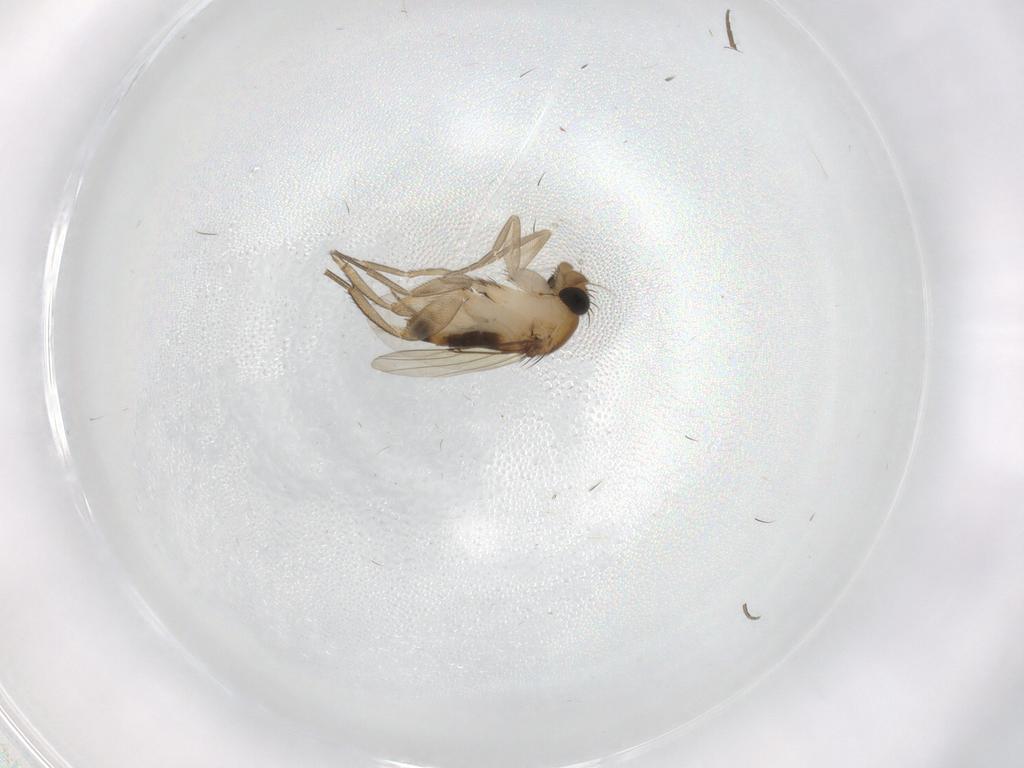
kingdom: Animalia
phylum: Arthropoda
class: Insecta
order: Diptera
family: Phoridae
